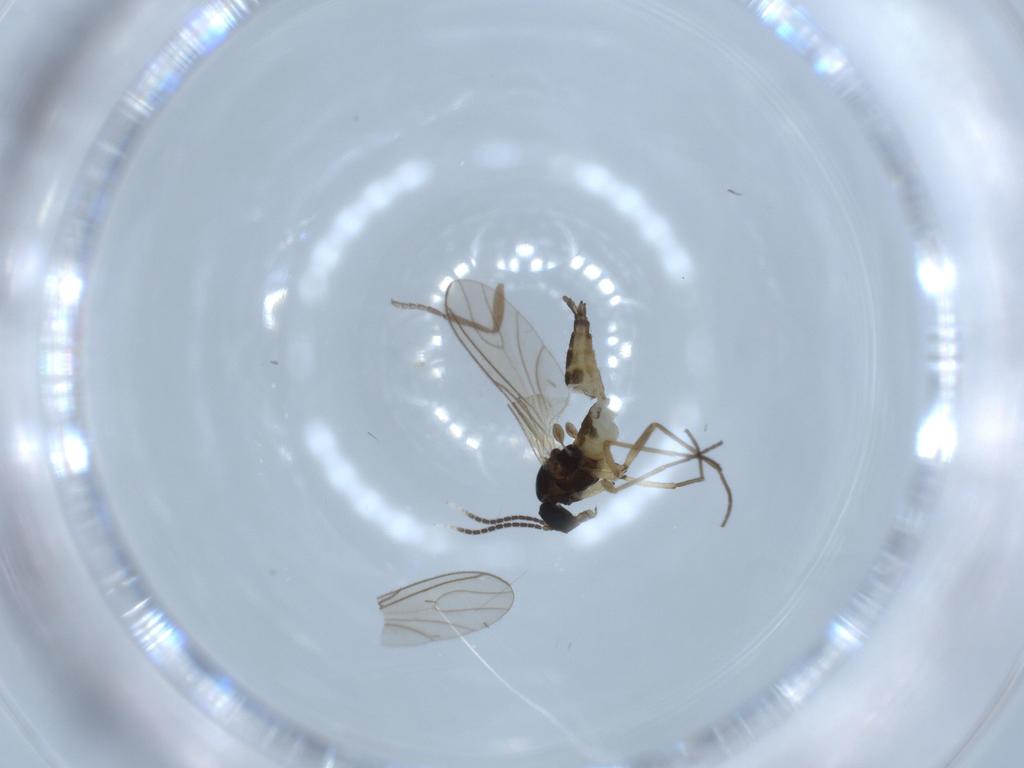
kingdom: Animalia
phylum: Arthropoda
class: Insecta
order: Diptera
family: Sciaridae
